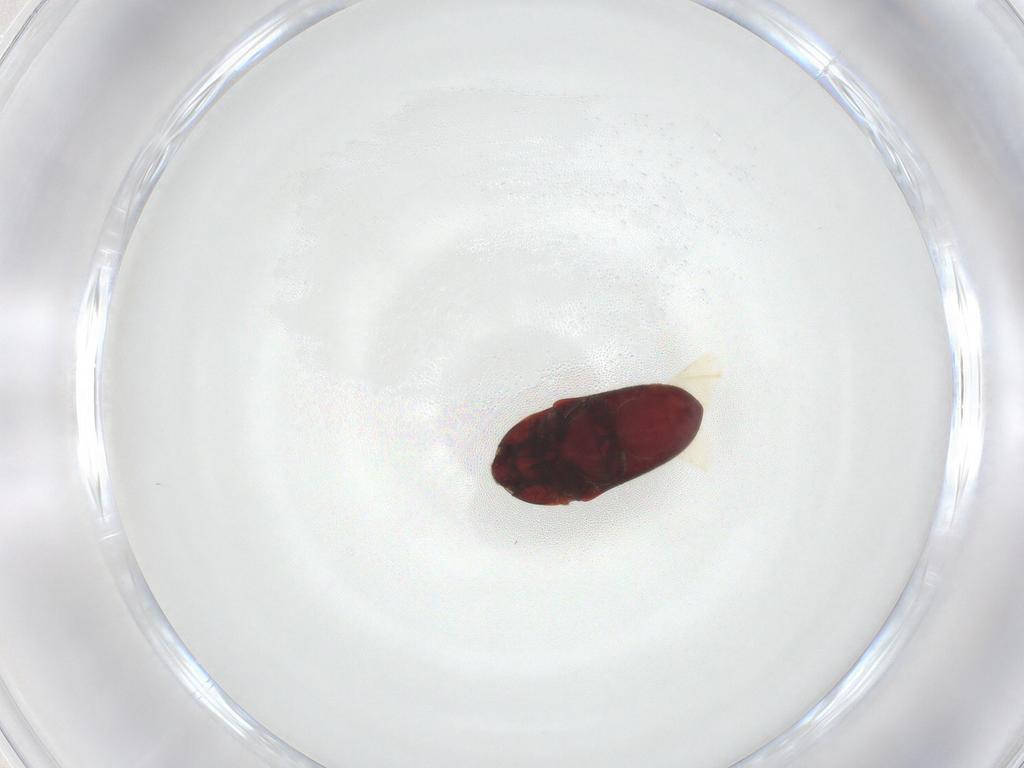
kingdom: Animalia
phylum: Arthropoda
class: Insecta
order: Coleoptera
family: Throscidae
